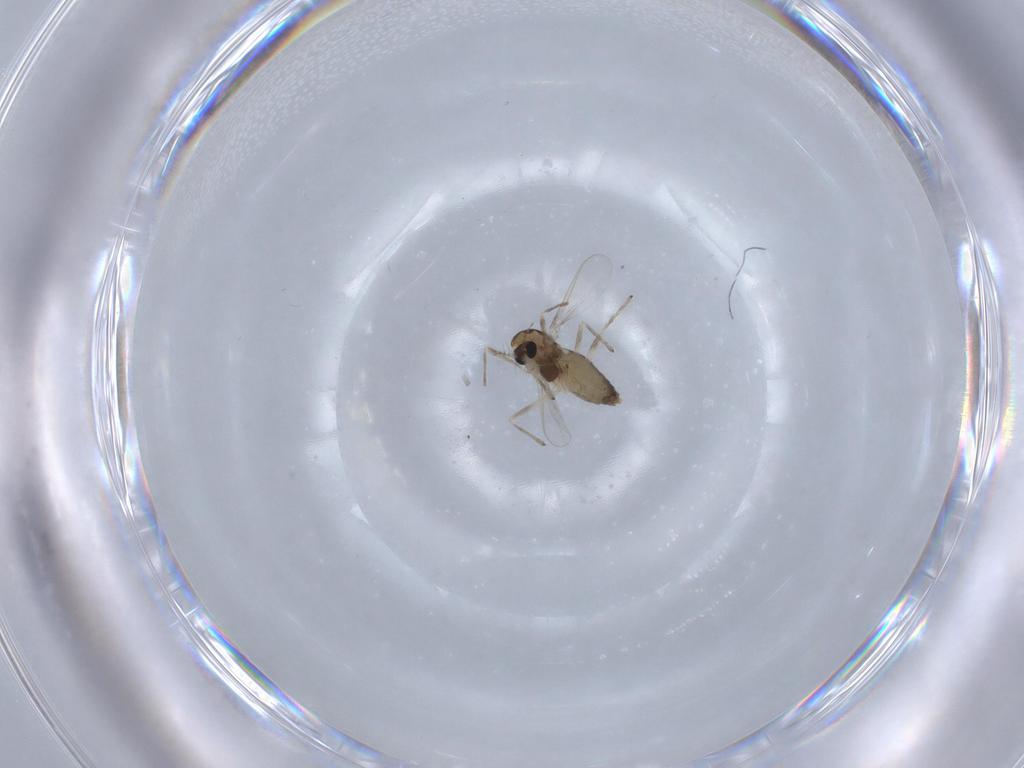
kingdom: Animalia
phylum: Arthropoda
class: Insecta
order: Diptera
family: Chironomidae
